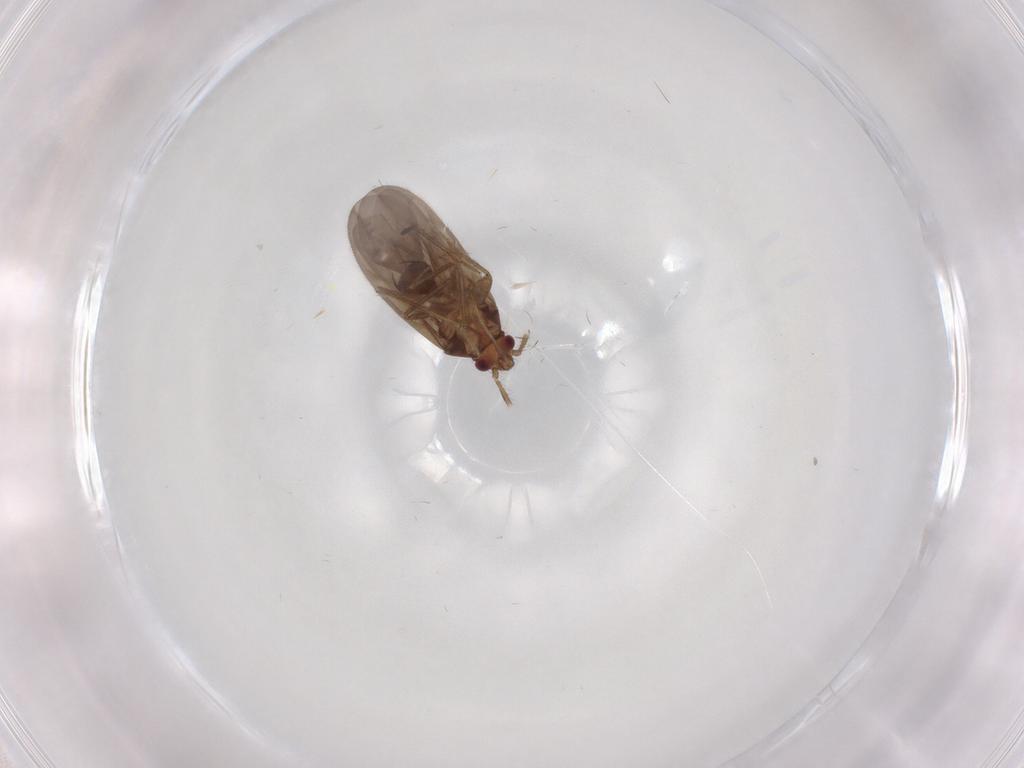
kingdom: Animalia
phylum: Arthropoda
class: Insecta
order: Hemiptera
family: Ceratocombidae
